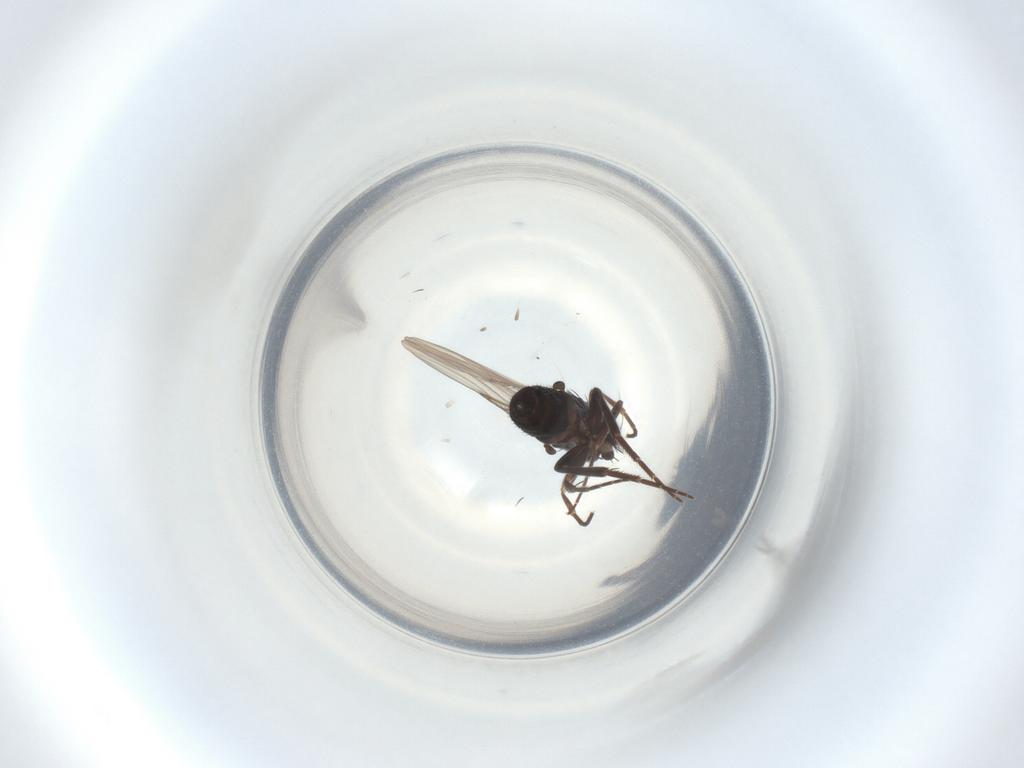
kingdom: Animalia
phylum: Arthropoda
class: Insecta
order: Diptera
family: Phoridae
